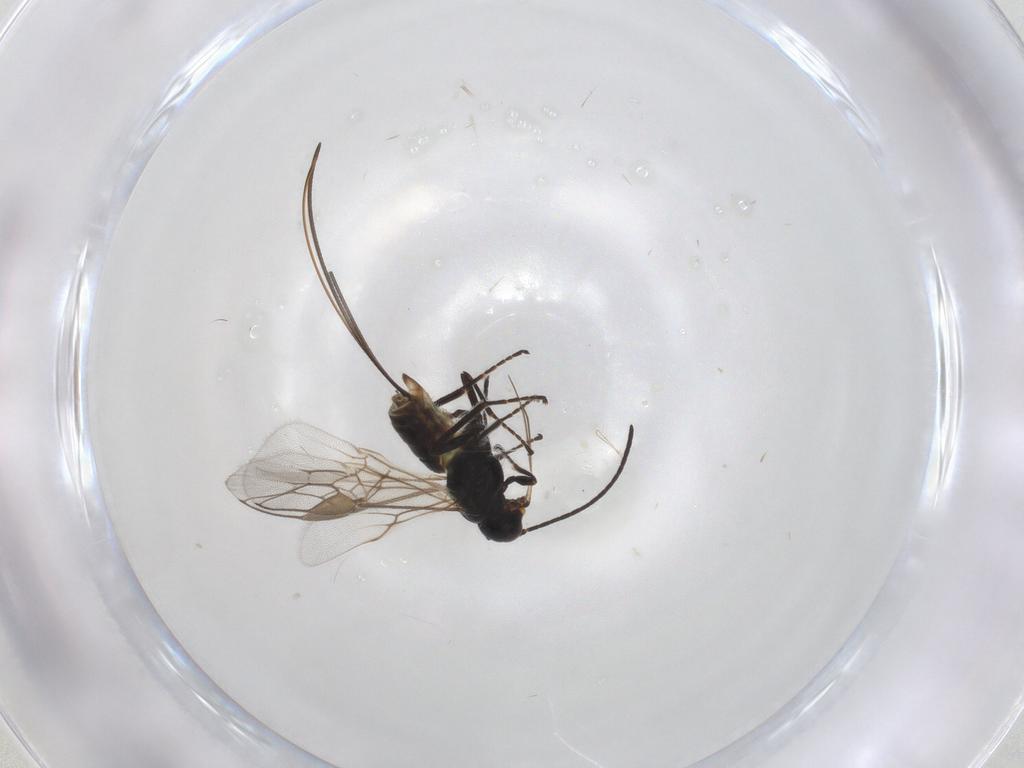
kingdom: Animalia
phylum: Arthropoda
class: Insecta
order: Hymenoptera
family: Braconidae
